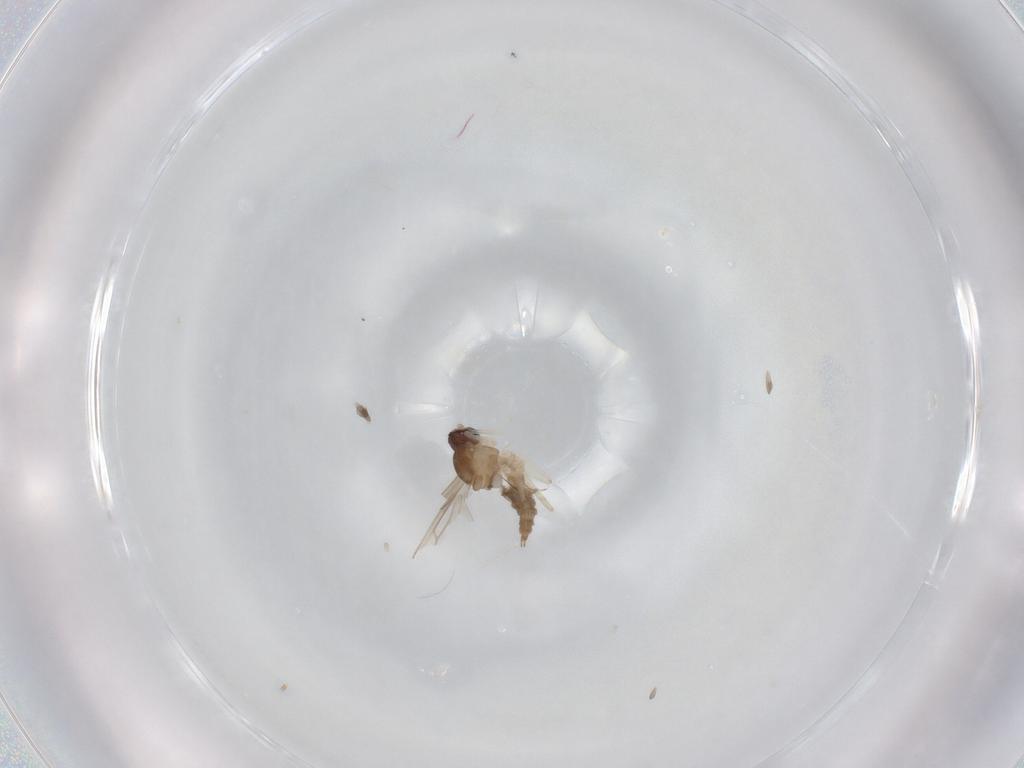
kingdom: Animalia
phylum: Arthropoda
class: Insecta
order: Diptera
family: Cecidomyiidae
